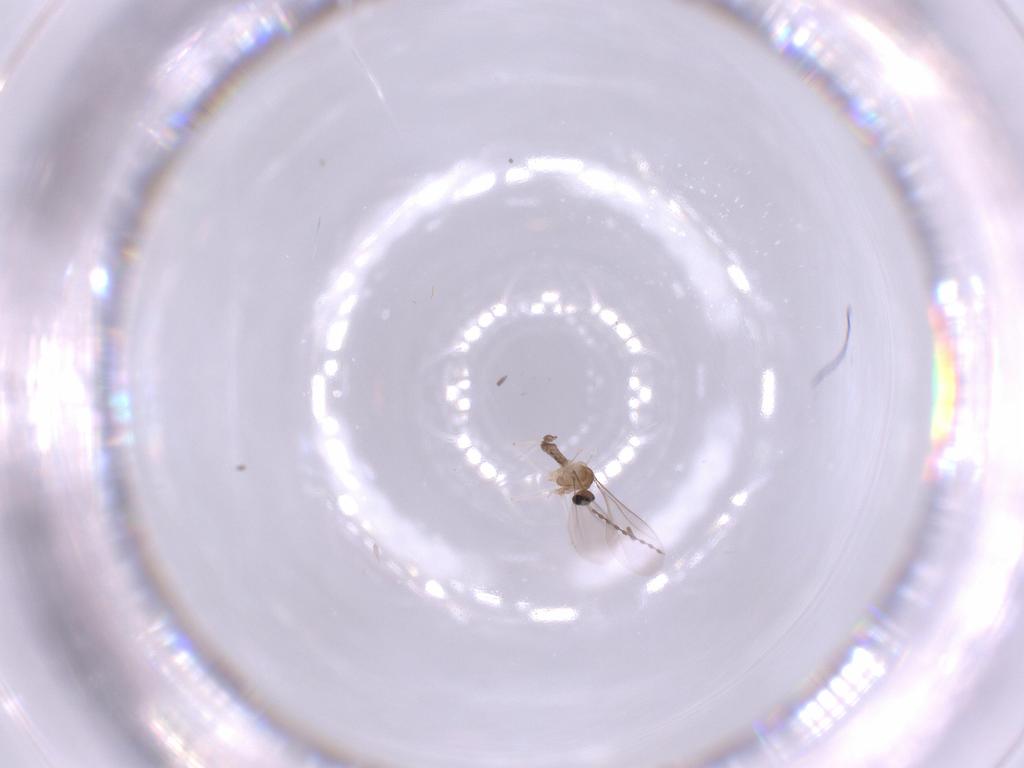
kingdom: Animalia
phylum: Arthropoda
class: Insecta
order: Diptera
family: Cecidomyiidae
